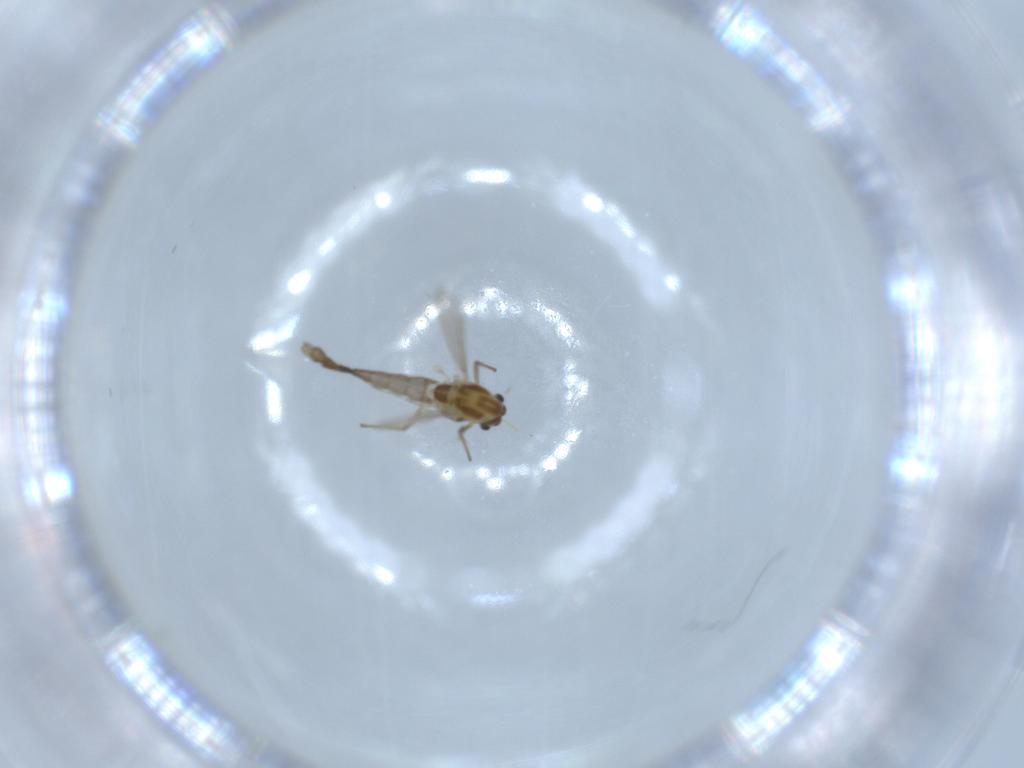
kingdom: Animalia
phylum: Arthropoda
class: Insecta
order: Diptera
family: Chironomidae
